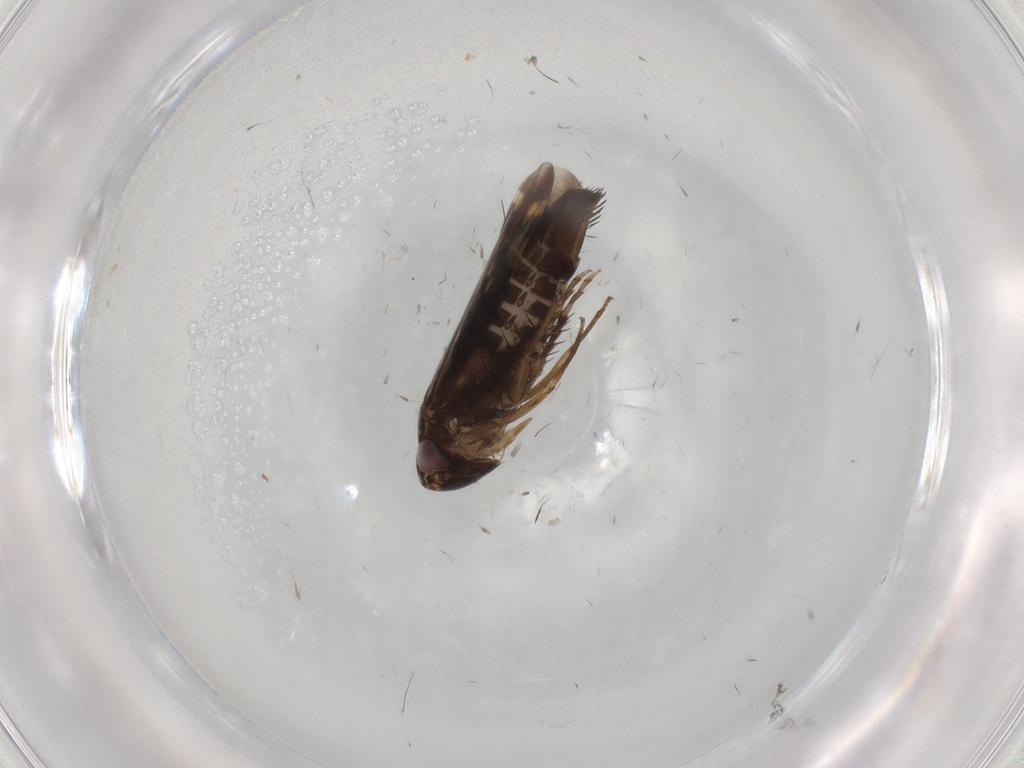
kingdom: Animalia
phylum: Arthropoda
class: Insecta
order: Hemiptera
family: Cicadellidae
